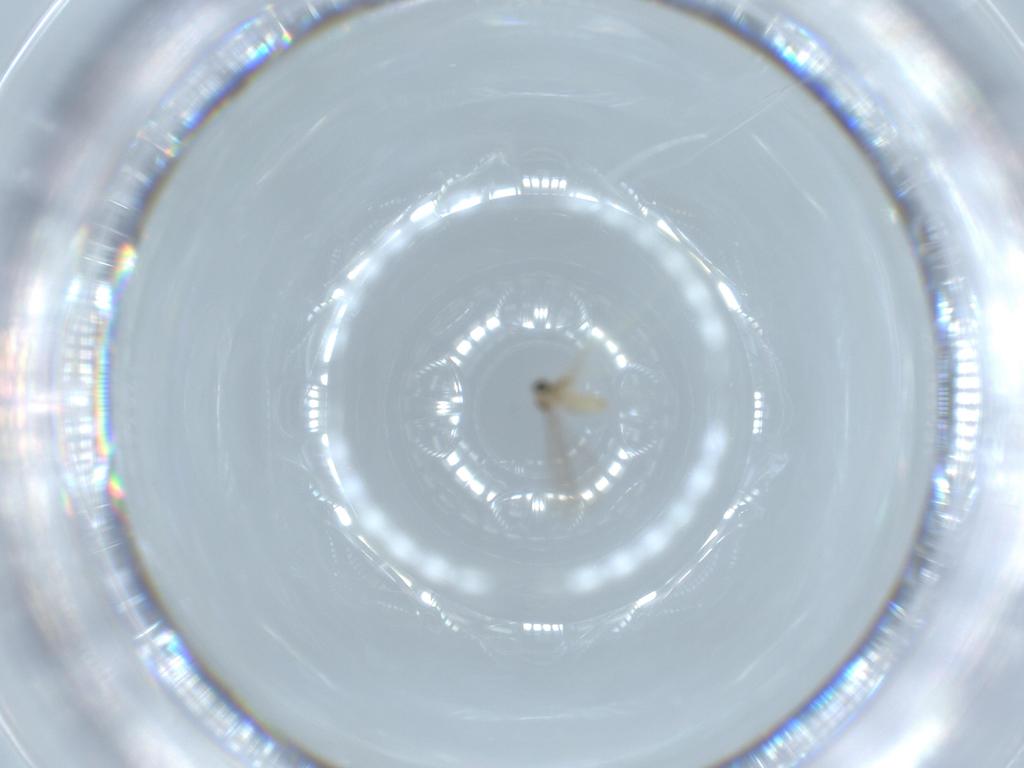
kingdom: Animalia
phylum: Arthropoda
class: Insecta
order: Diptera
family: Cecidomyiidae
